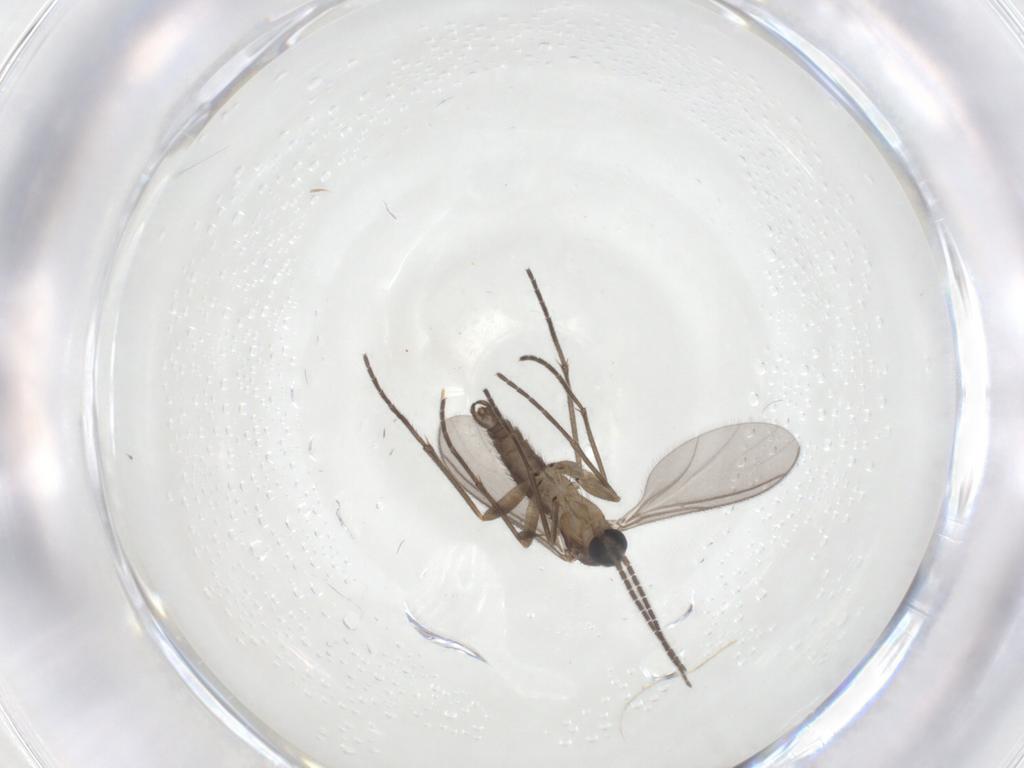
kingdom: Animalia
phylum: Arthropoda
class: Insecta
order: Diptera
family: Sciaridae
